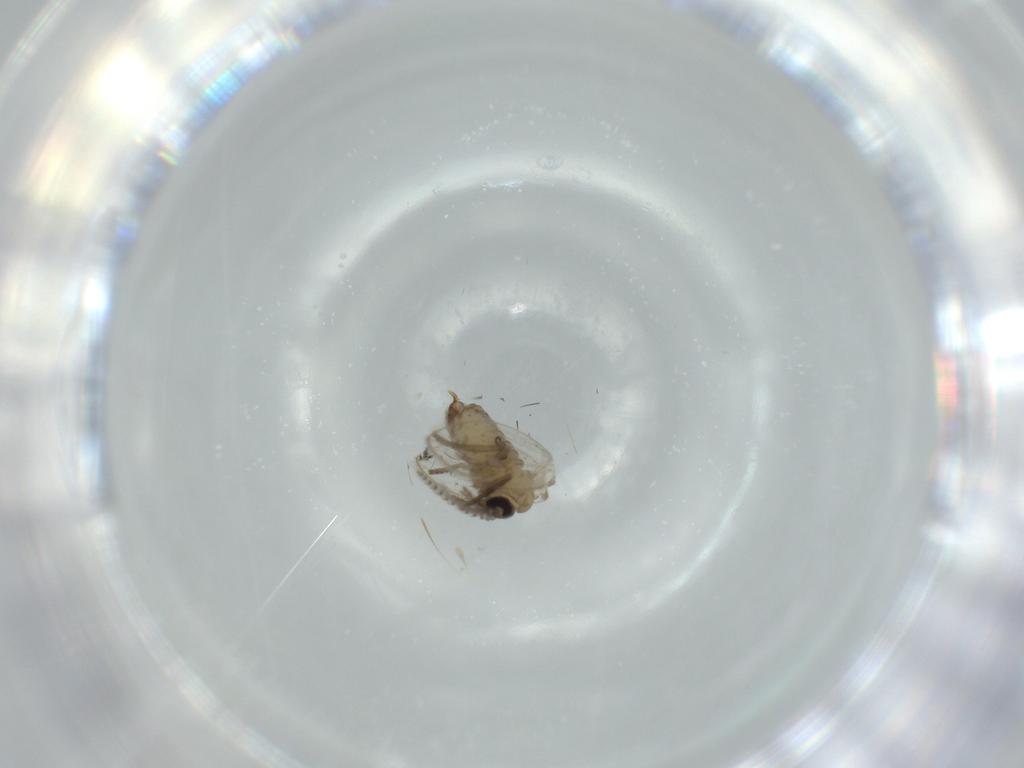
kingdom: Animalia
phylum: Arthropoda
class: Insecta
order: Diptera
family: Psychodidae
